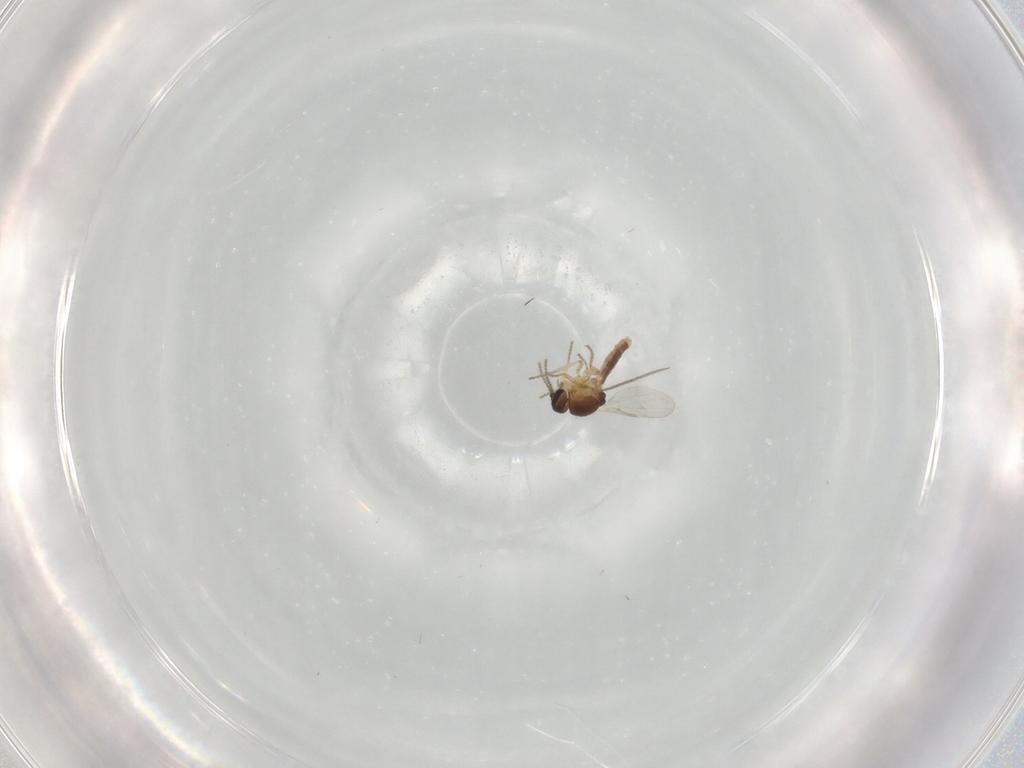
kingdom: Animalia
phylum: Arthropoda
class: Insecta
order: Diptera
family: Ceratopogonidae
